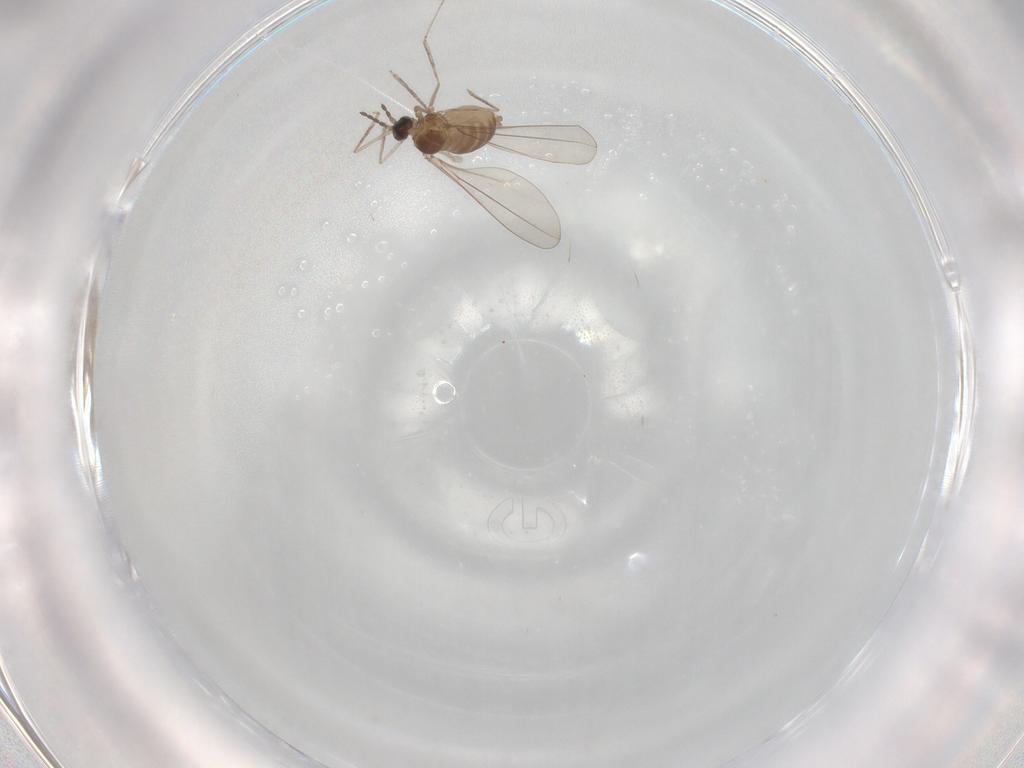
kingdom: Animalia
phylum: Arthropoda
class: Insecta
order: Diptera
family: Cecidomyiidae
